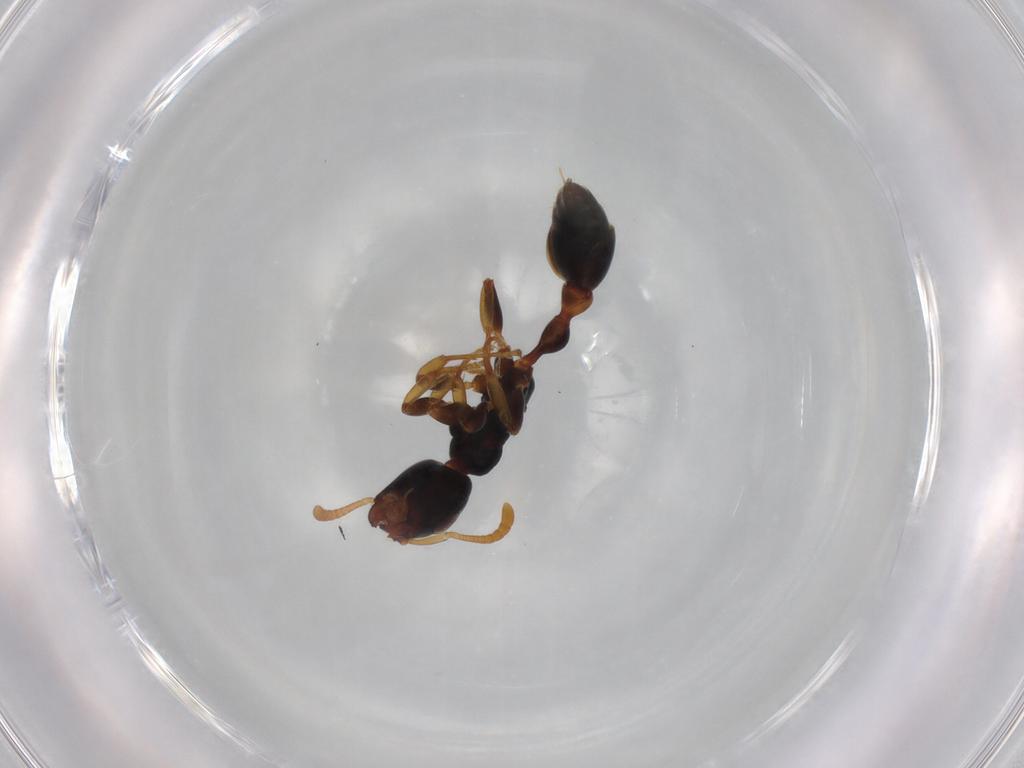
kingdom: Animalia
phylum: Arthropoda
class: Insecta
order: Hymenoptera
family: Formicidae
